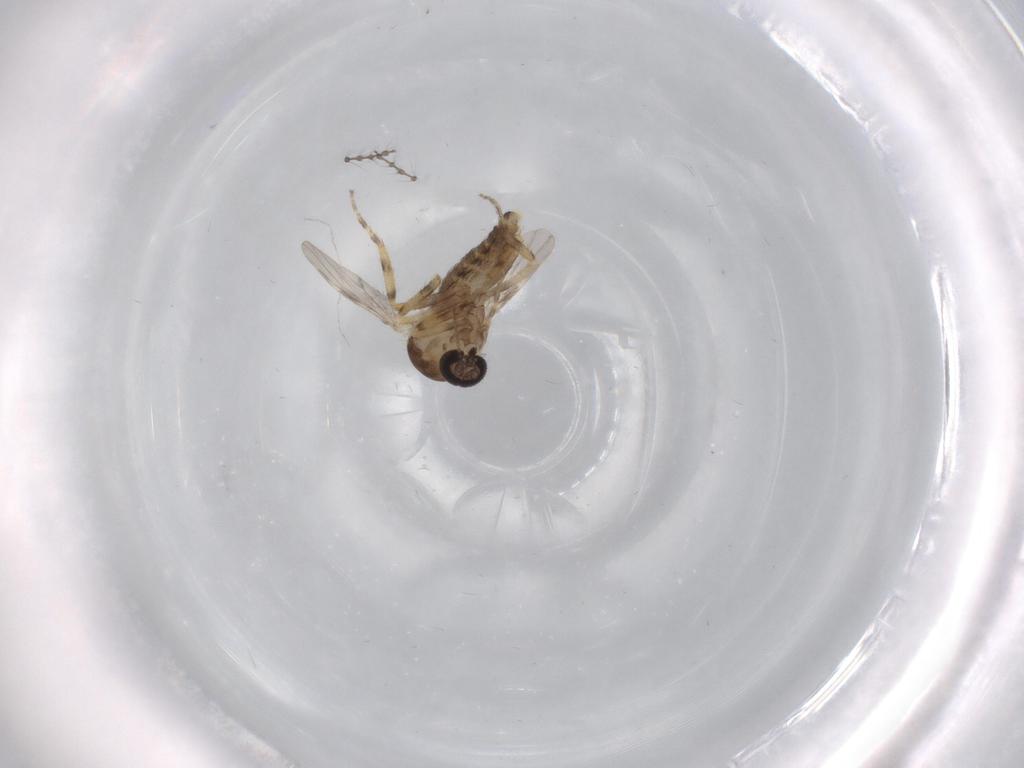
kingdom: Animalia
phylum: Arthropoda
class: Insecta
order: Diptera
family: Ceratopogonidae
